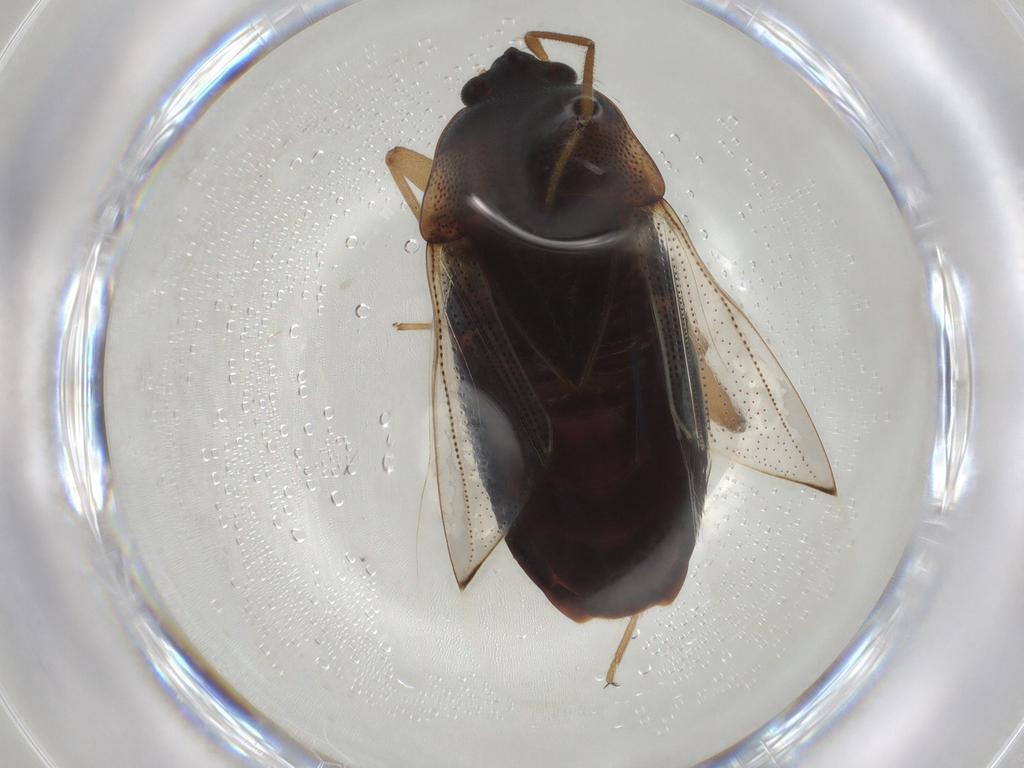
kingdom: Animalia
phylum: Arthropoda
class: Insecta
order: Hemiptera
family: Rhyparochromidae
